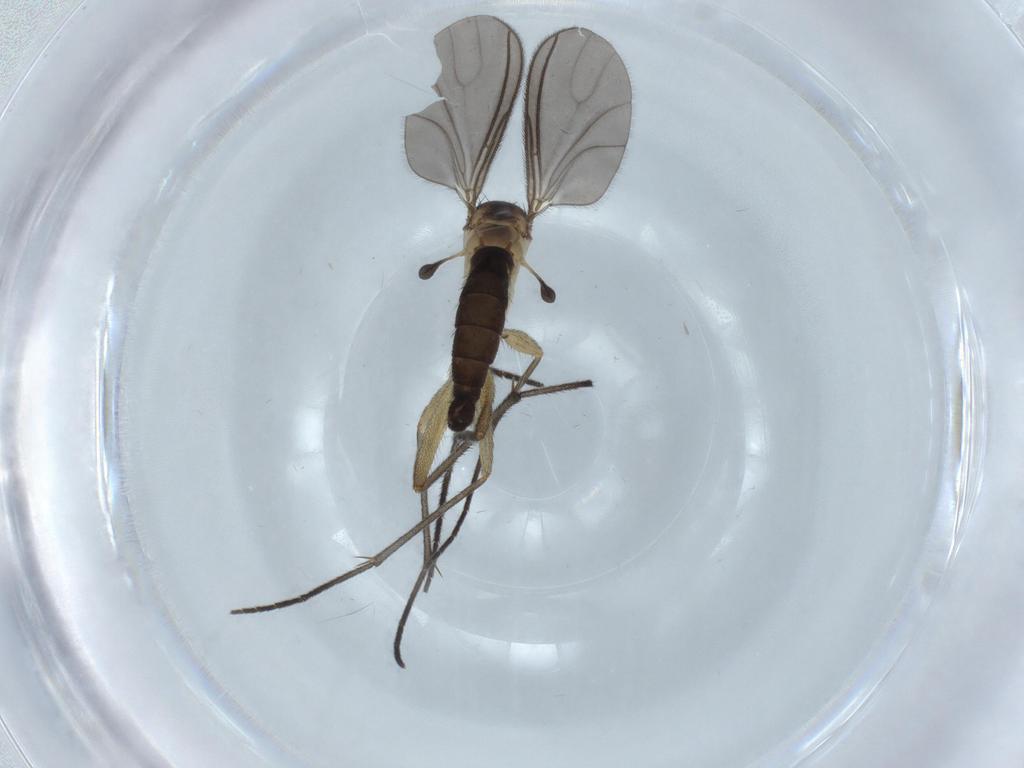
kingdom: Animalia
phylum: Arthropoda
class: Insecta
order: Diptera
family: Sciaridae
